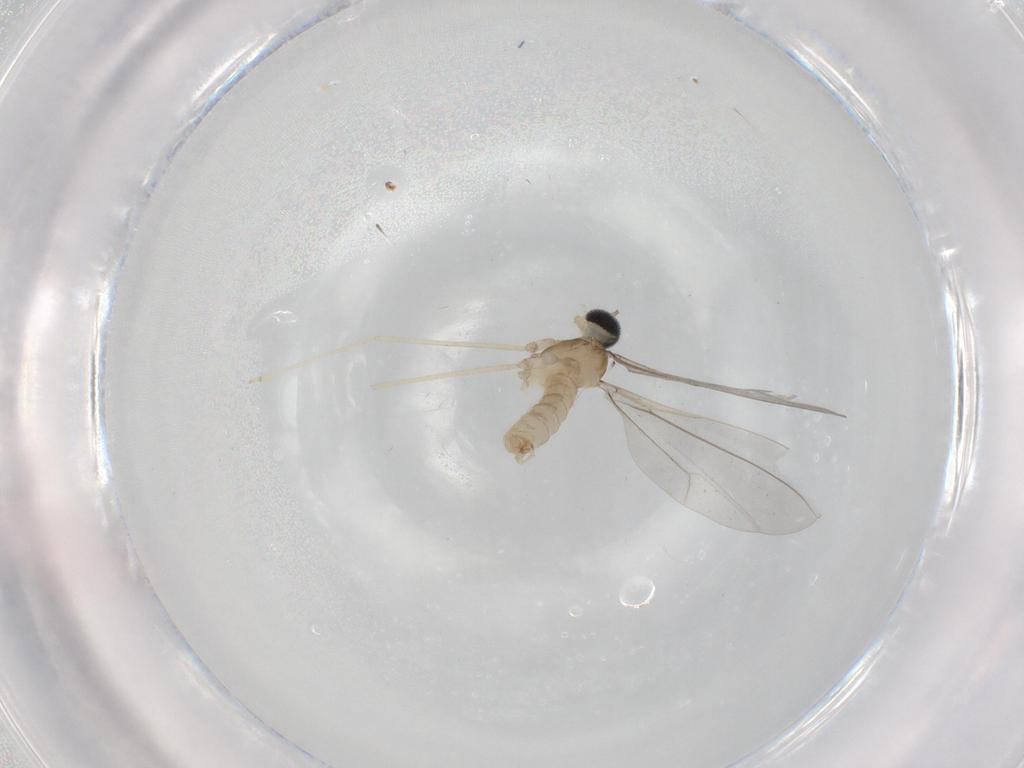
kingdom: Animalia
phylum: Arthropoda
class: Insecta
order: Diptera
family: Cecidomyiidae
